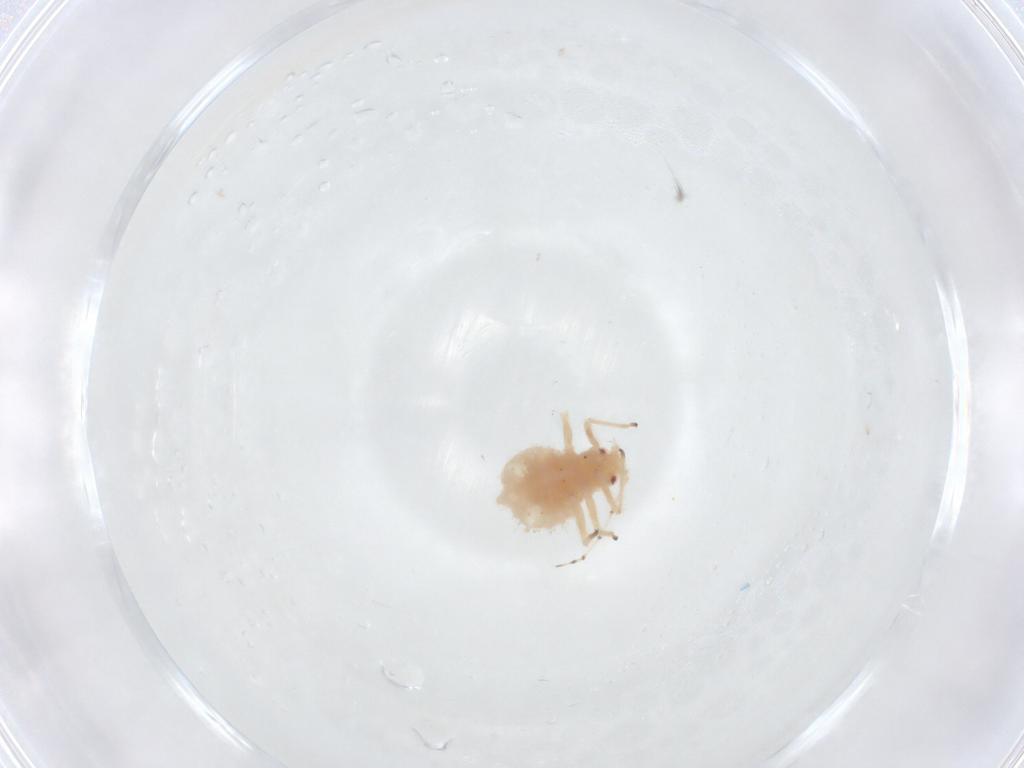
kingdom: Animalia
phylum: Arthropoda
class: Insecta
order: Hemiptera
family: Aphididae
